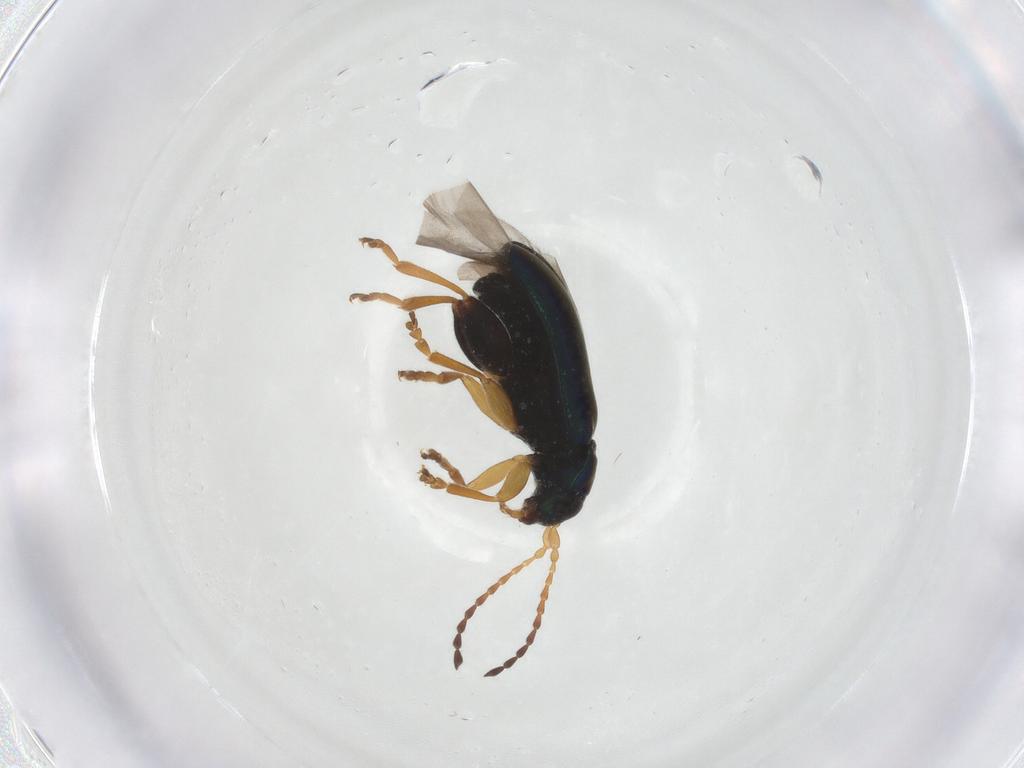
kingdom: Animalia
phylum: Arthropoda
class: Insecta
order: Coleoptera
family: Chrysomelidae
